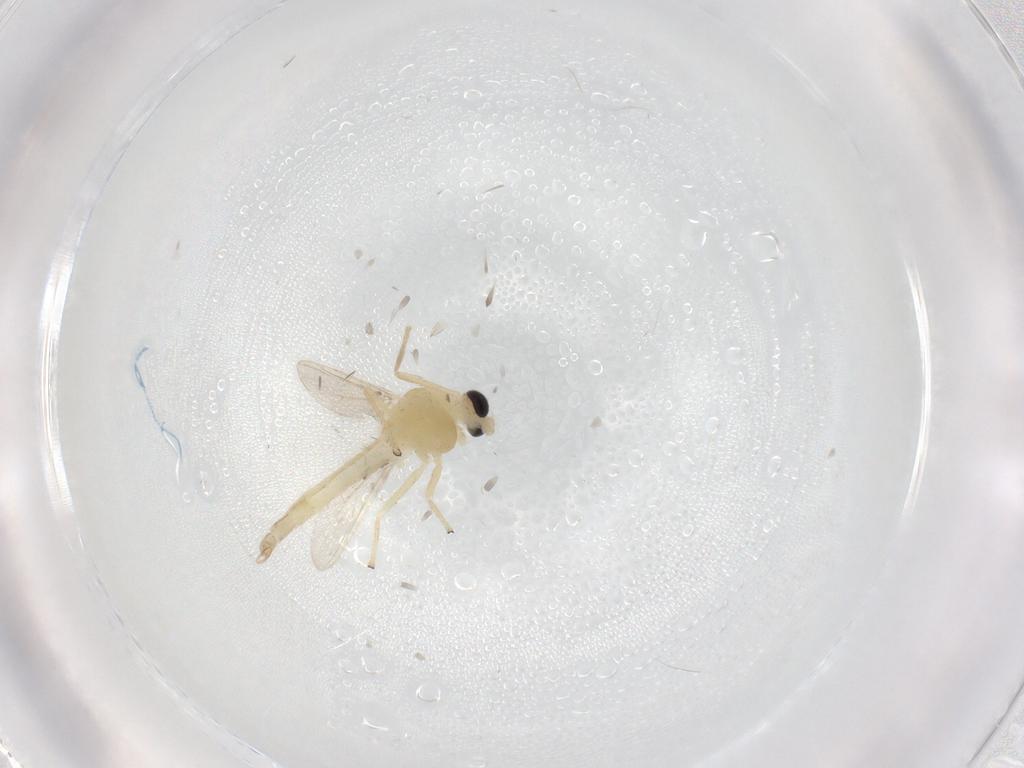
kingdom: Animalia
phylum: Arthropoda
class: Insecta
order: Diptera
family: Chironomidae
